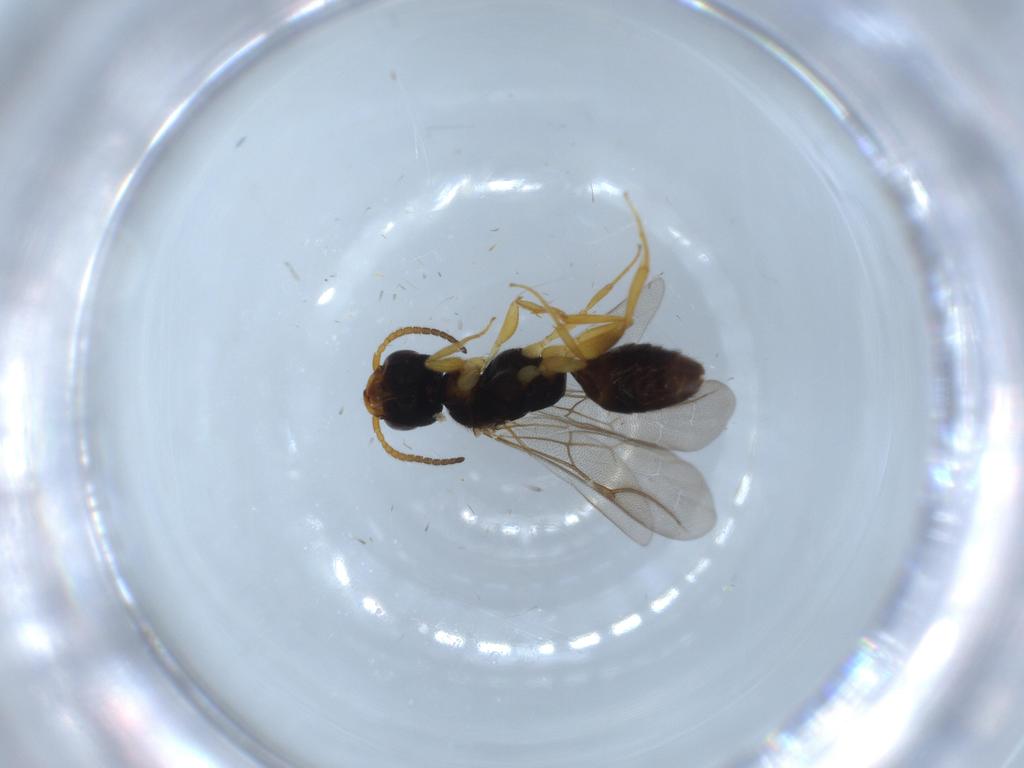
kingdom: Animalia
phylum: Arthropoda
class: Insecta
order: Hymenoptera
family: Bethylidae
